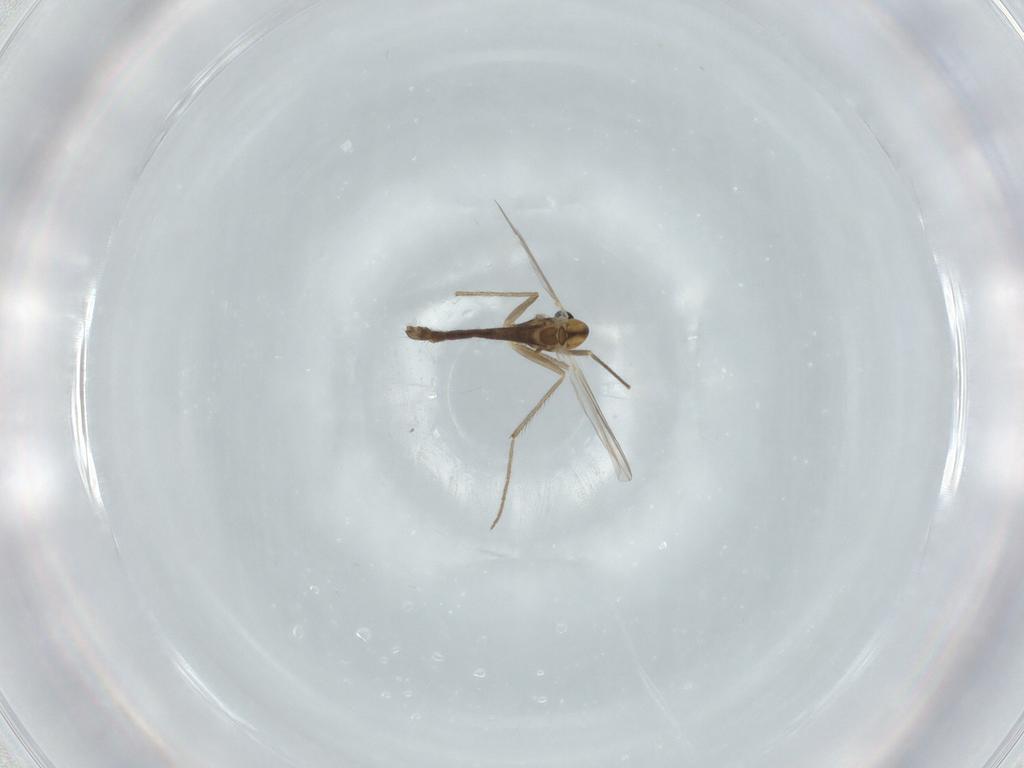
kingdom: Animalia
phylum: Arthropoda
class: Insecta
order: Diptera
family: Chironomidae
